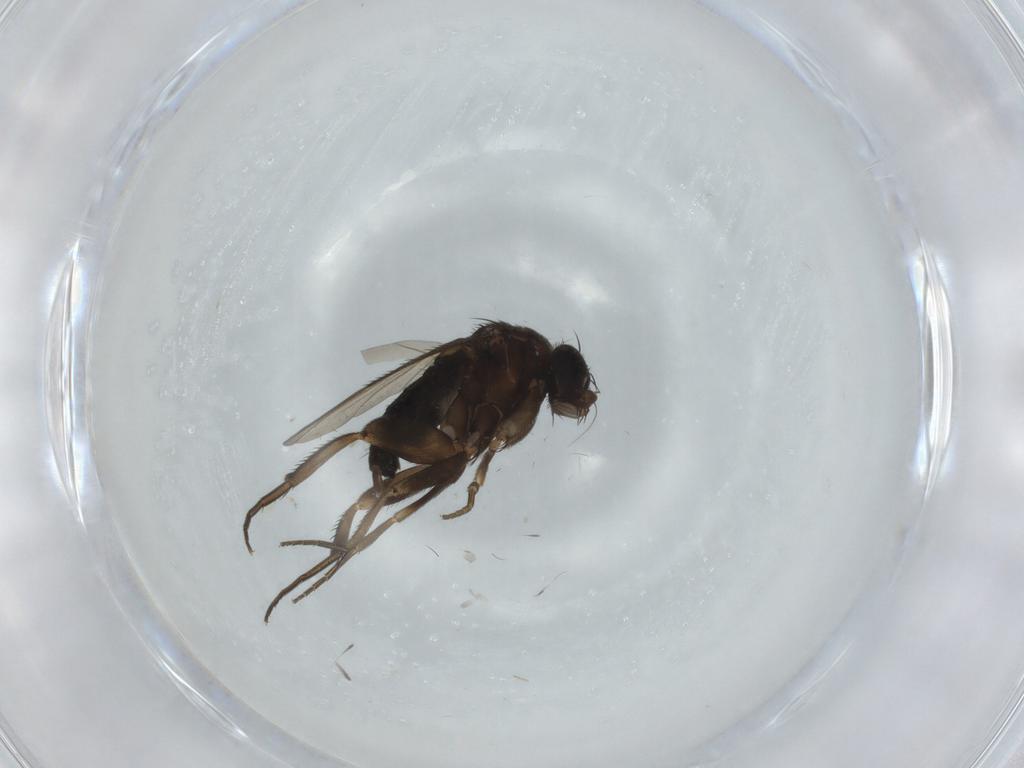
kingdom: Animalia
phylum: Arthropoda
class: Insecta
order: Diptera
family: Phoridae
